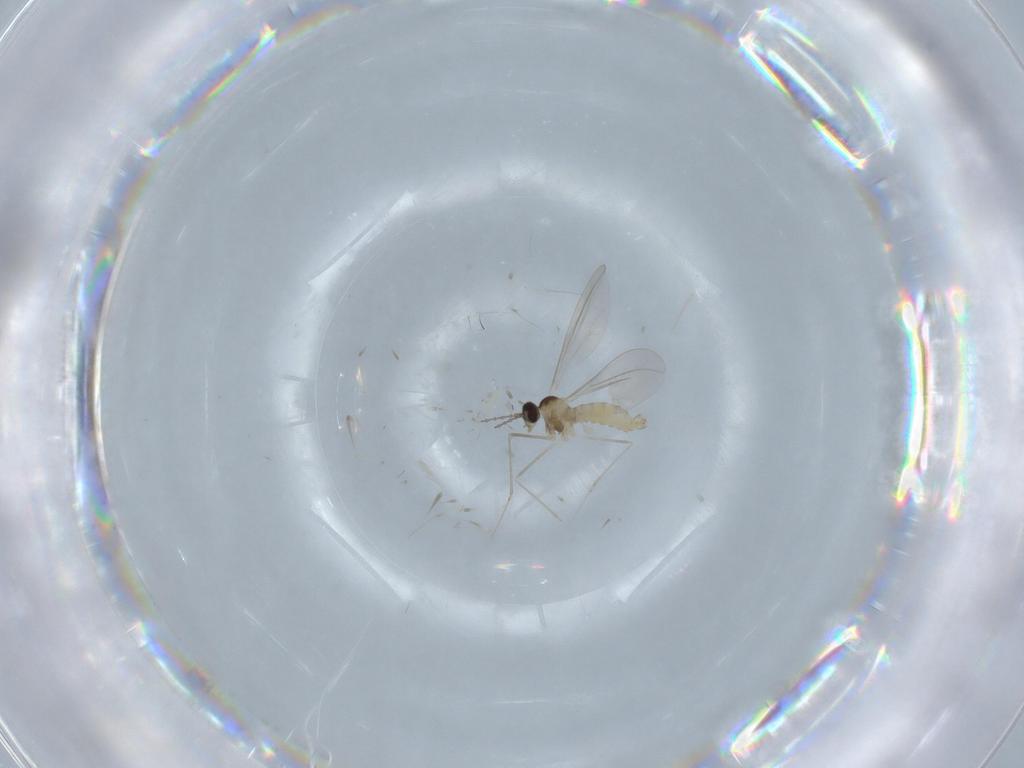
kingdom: Animalia
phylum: Arthropoda
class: Insecta
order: Diptera
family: Cecidomyiidae
